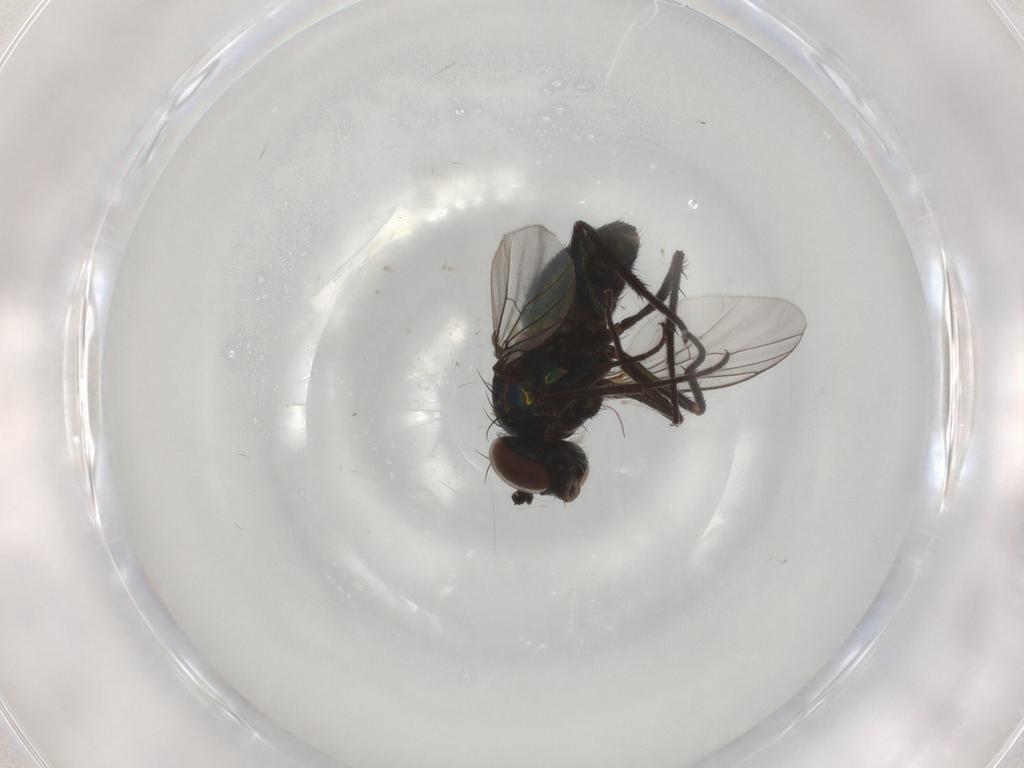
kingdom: Animalia
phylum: Arthropoda
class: Insecta
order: Diptera
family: Dolichopodidae
